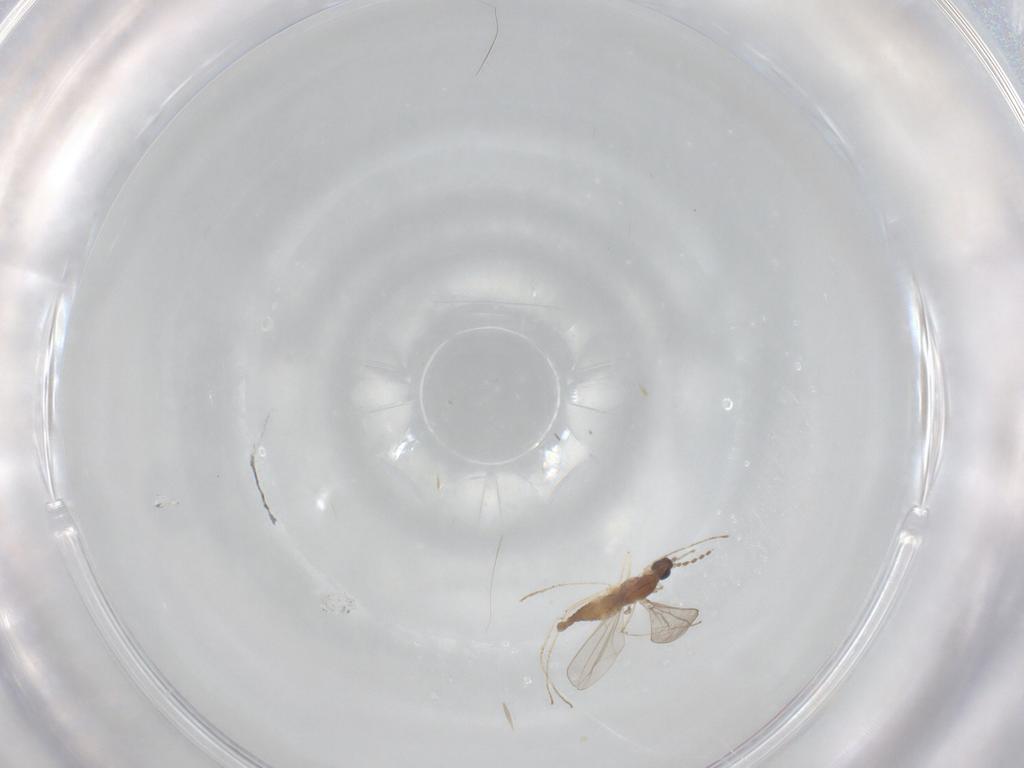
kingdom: Animalia
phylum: Arthropoda
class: Insecta
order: Diptera
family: Cecidomyiidae
